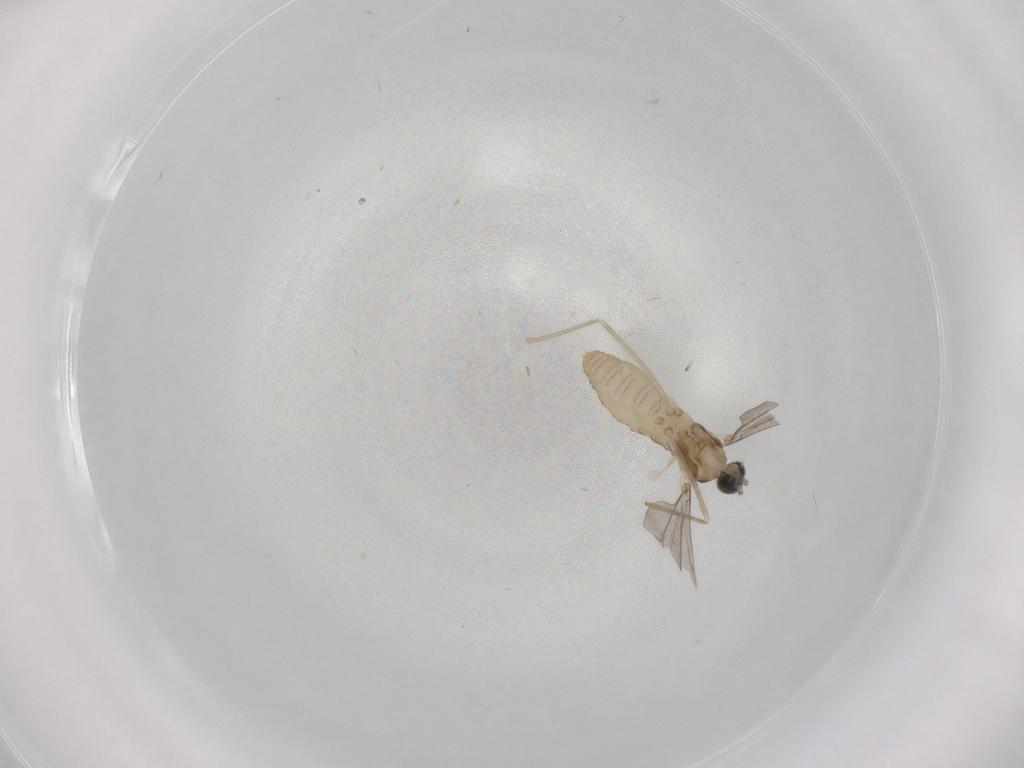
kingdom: Animalia
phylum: Arthropoda
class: Insecta
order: Diptera
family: Cecidomyiidae
